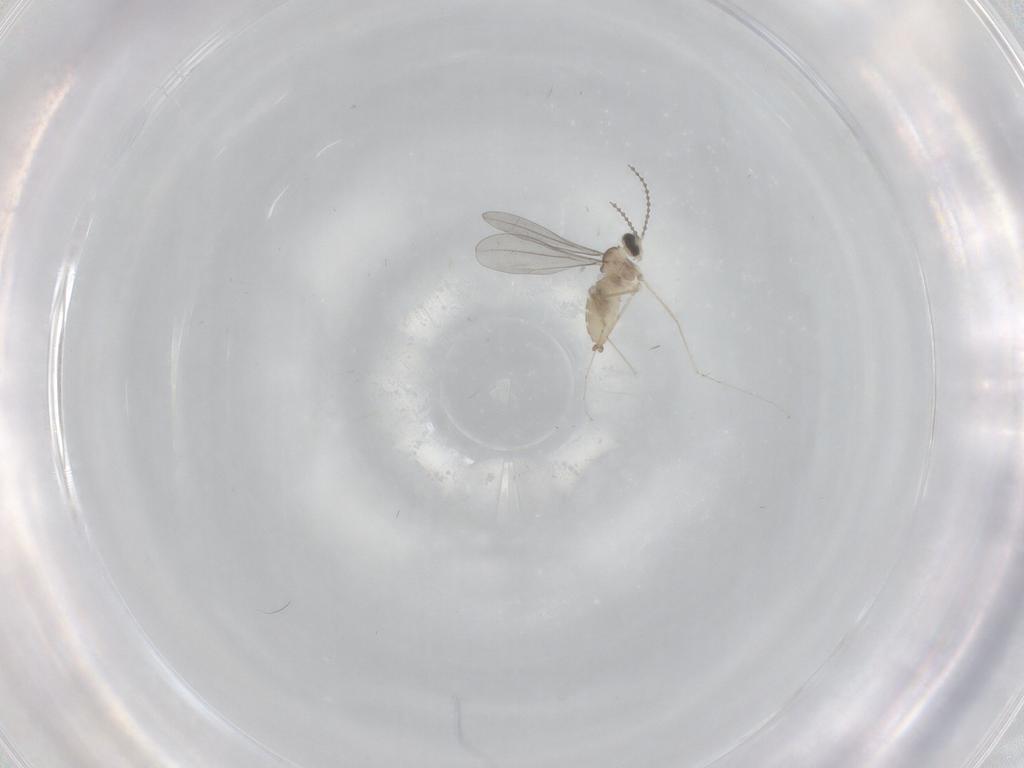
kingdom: Animalia
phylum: Arthropoda
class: Insecta
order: Diptera
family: Cecidomyiidae
